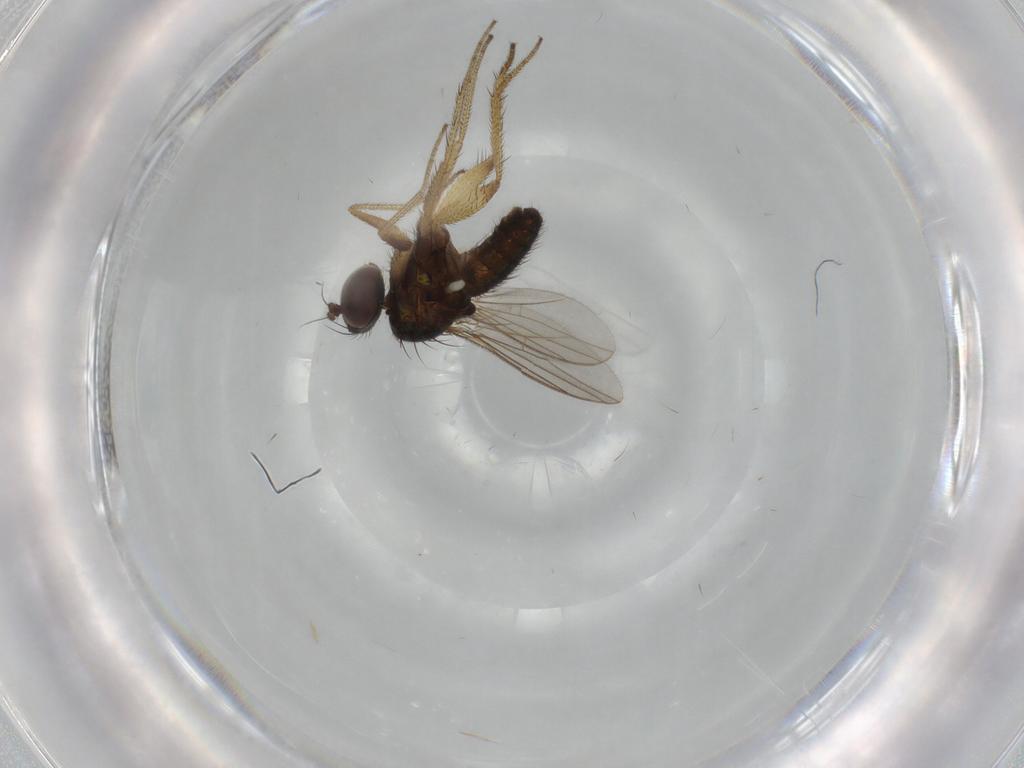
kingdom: Animalia
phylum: Arthropoda
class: Insecta
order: Diptera
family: Dolichopodidae
